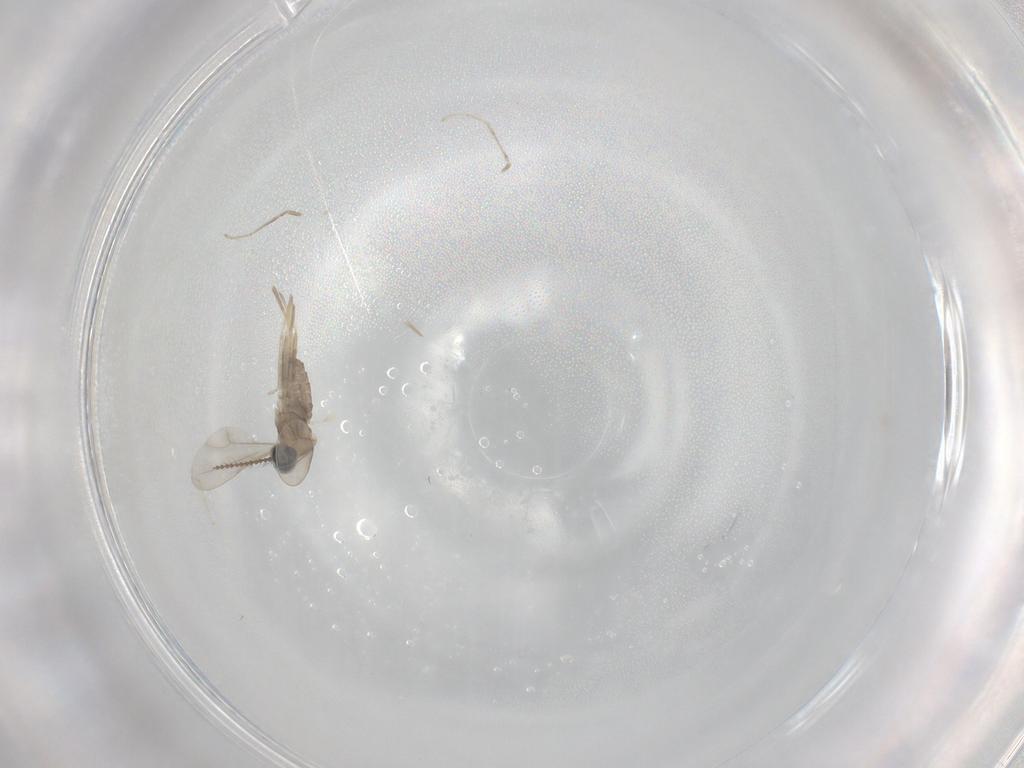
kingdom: Animalia
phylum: Arthropoda
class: Insecta
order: Diptera
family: Cecidomyiidae
